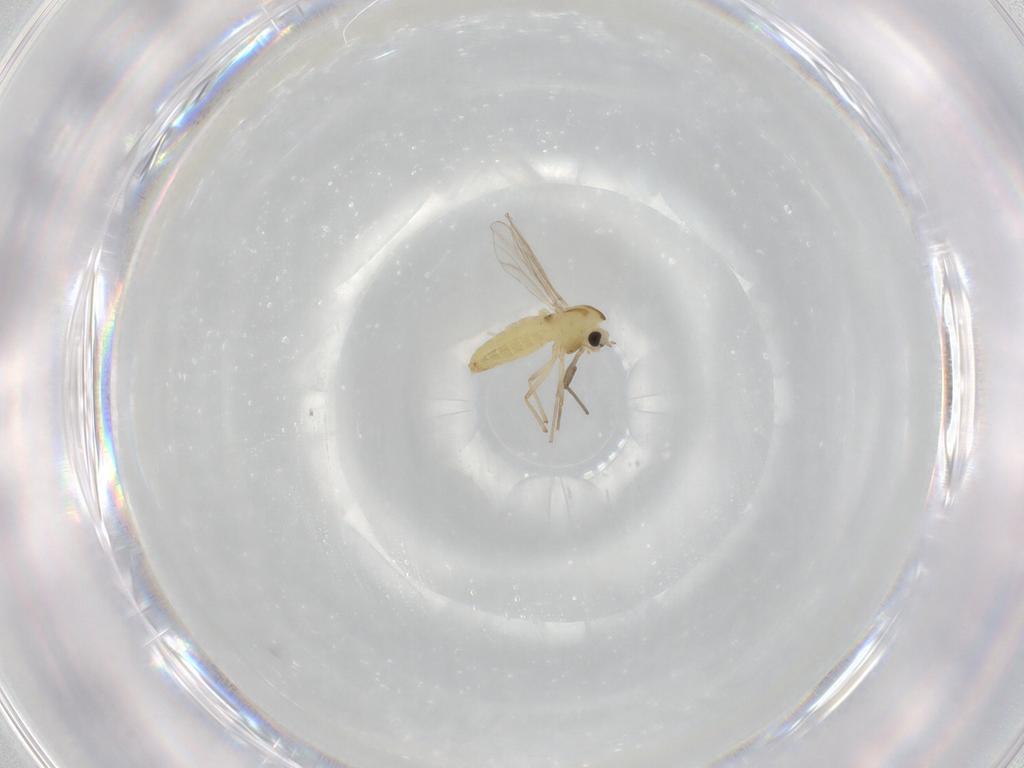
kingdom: Animalia
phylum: Arthropoda
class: Insecta
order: Diptera
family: Chironomidae
